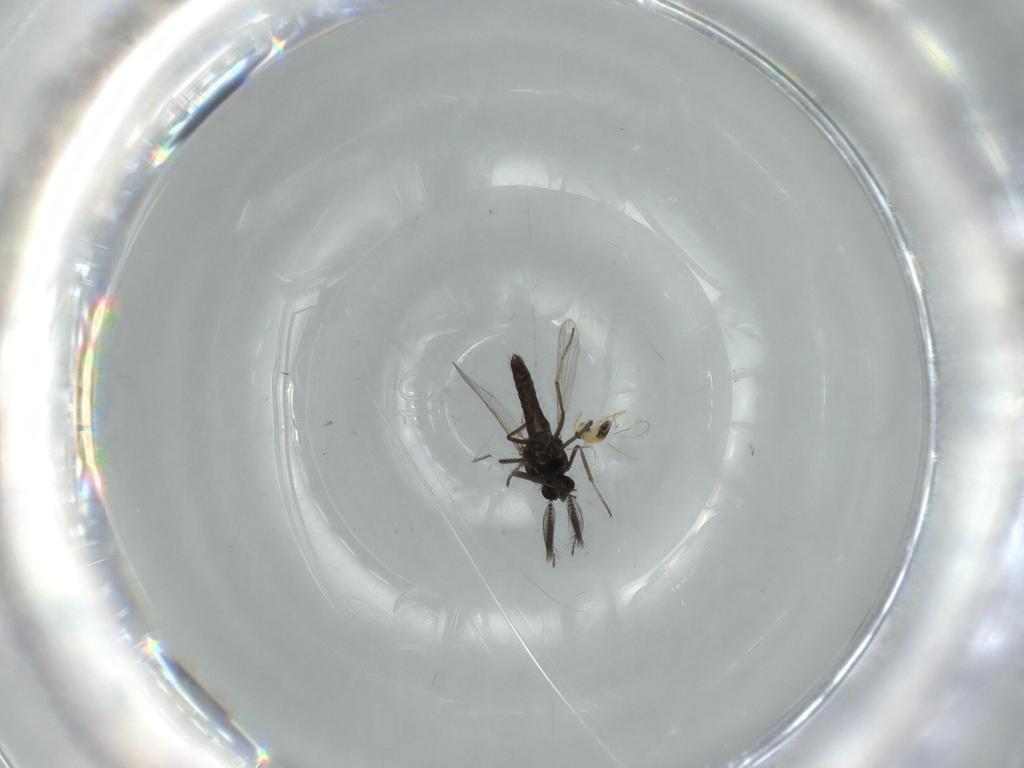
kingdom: Animalia
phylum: Arthropoda
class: Insecta
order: Diptera
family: Ceratopogonidae
